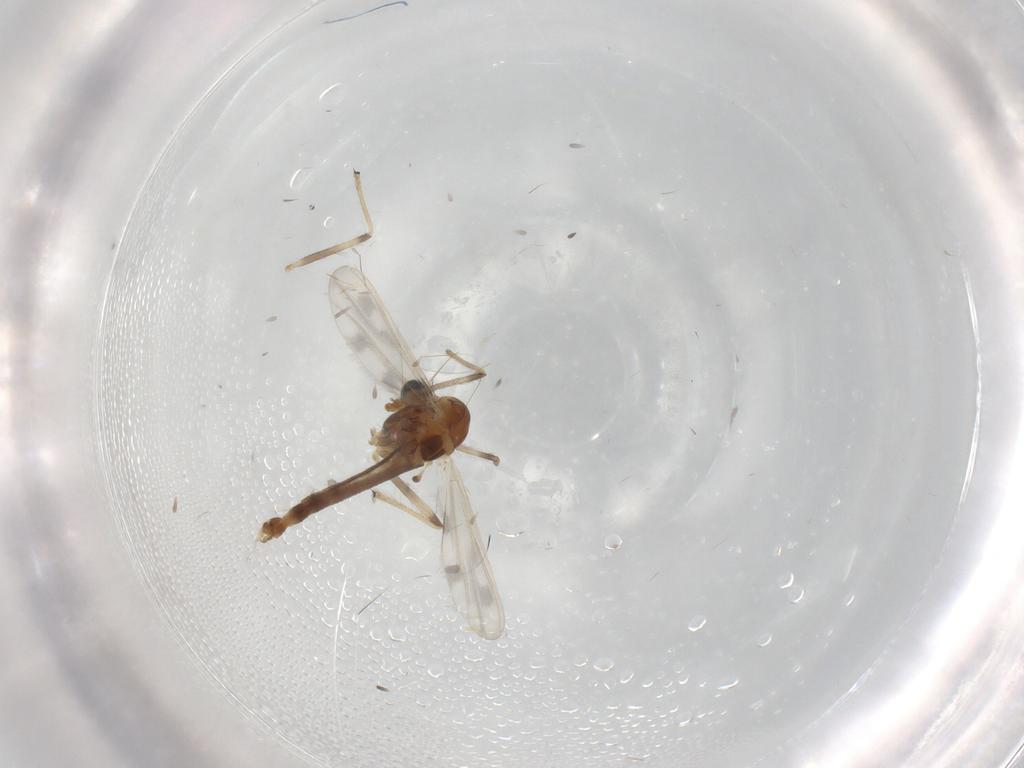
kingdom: Animalia
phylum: Arthropoda
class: Insecta
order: Diptera
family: Chironomidae
